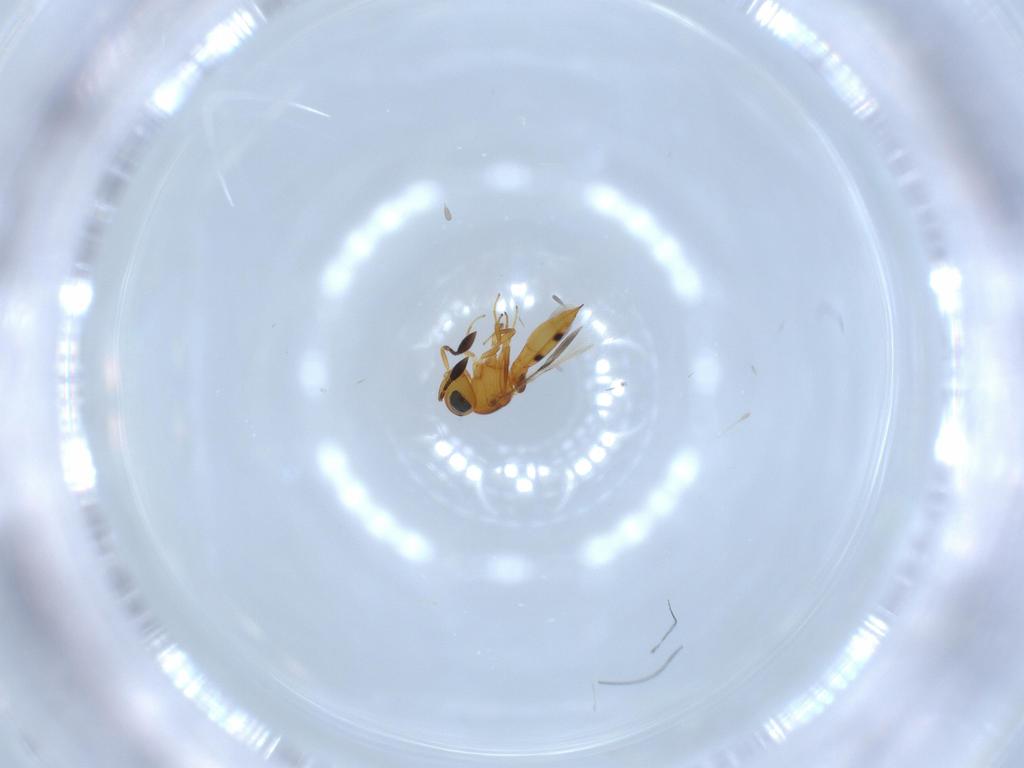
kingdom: Animalia
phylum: Arthropoda
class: Insecta
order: Hymenoptera
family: Scelionidae
